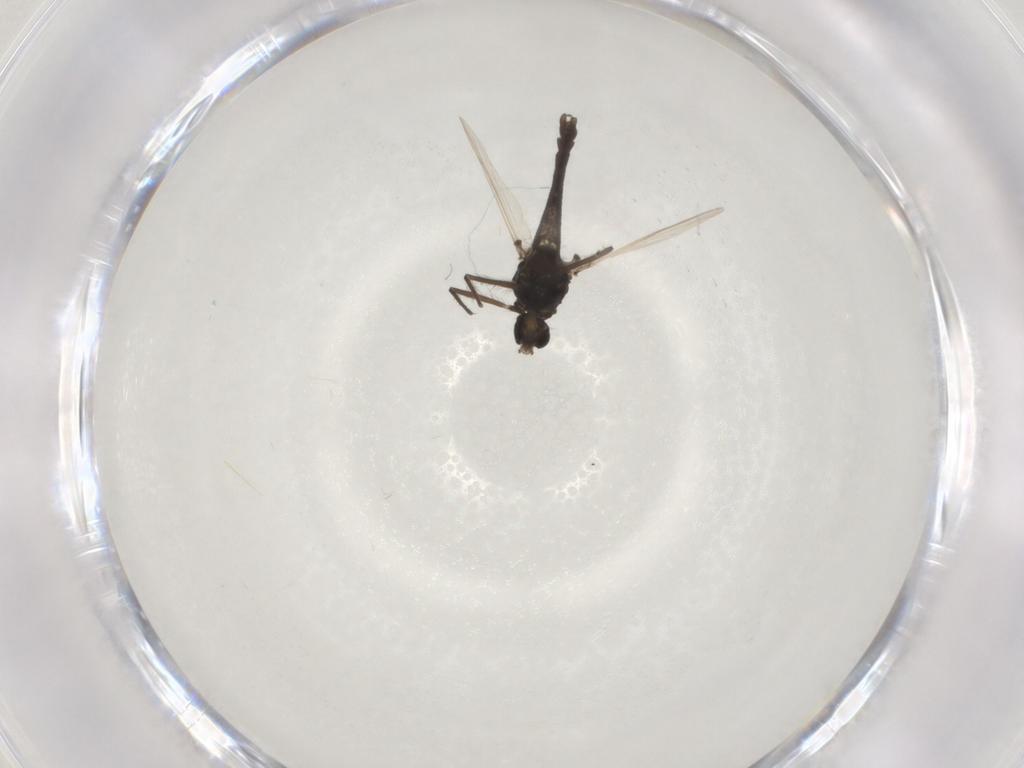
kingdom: Animalia
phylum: Arthropoda
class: Insecta
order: Diptera
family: Chironomidae
